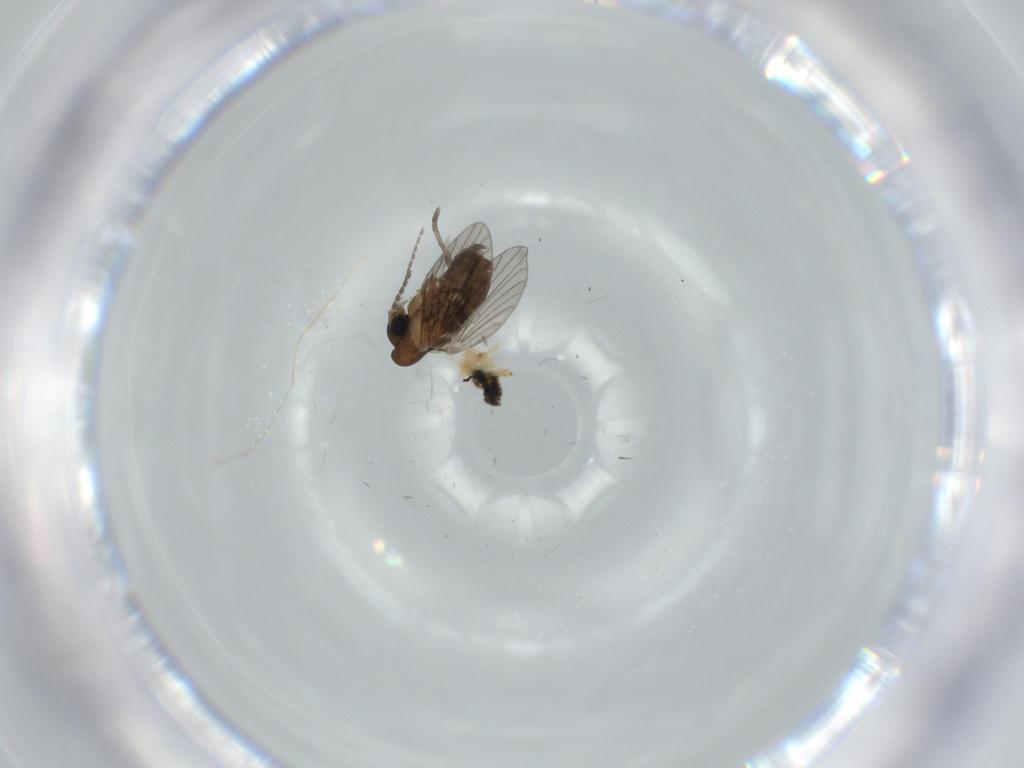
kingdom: Animalia
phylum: Arthropoda
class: Insecta
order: Diptera
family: Psychodidae
